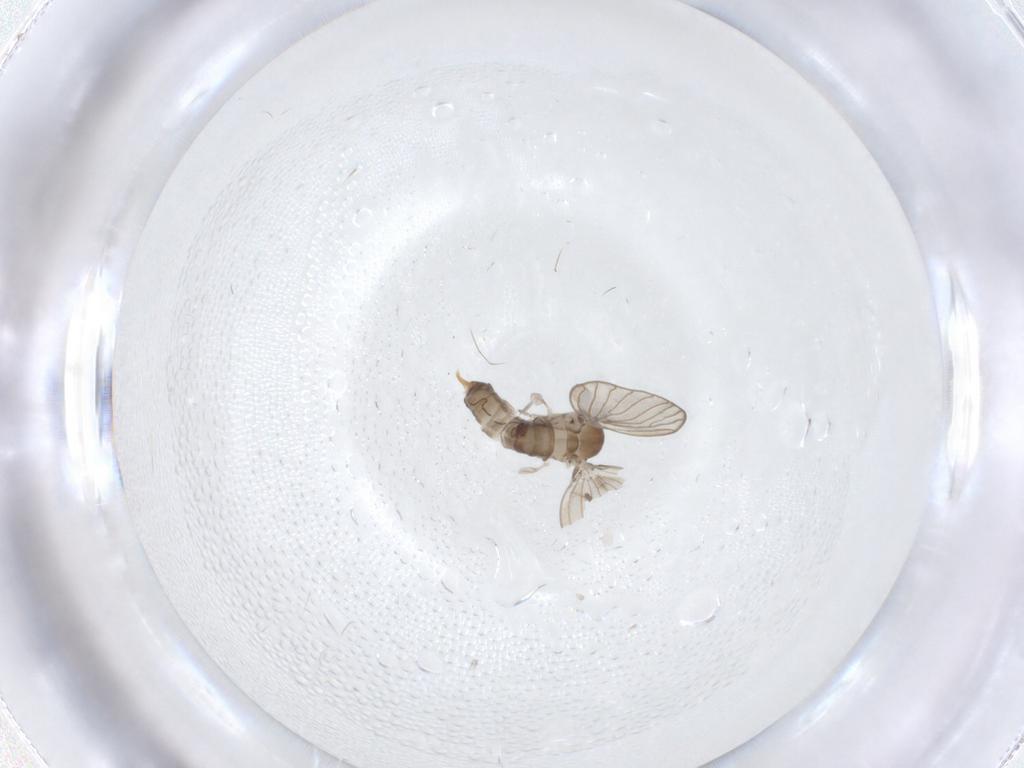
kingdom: Animalia
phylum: Arthropoda
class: Insecta
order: Diptera
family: Psychodidae
